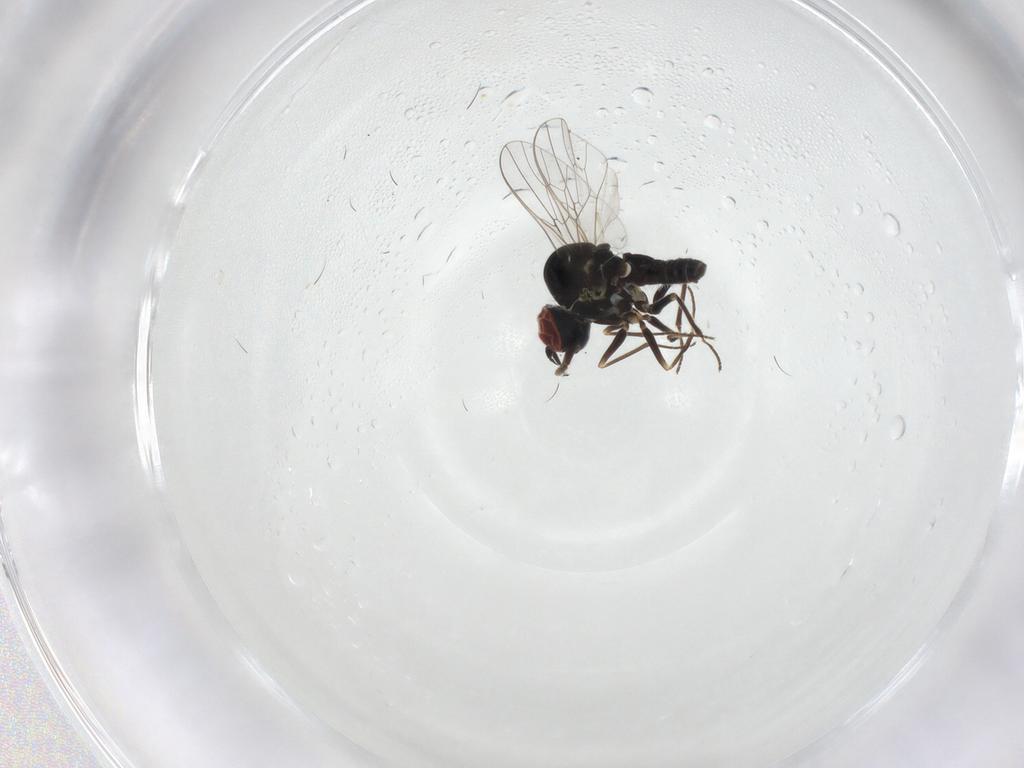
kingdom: Animalia
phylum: Arthropoda
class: Insecta
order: Diptera
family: Mythicomyiidae
